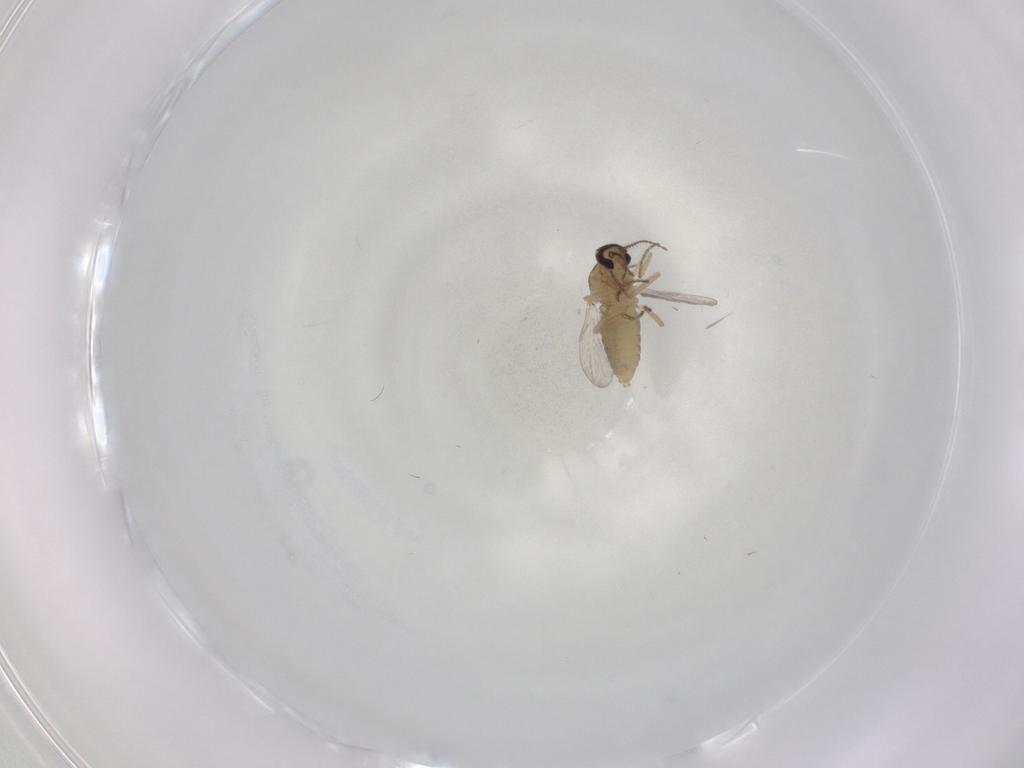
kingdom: Animalia
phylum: Arthropoda
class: Insecta
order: Diptera
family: Ceratopogonidae
